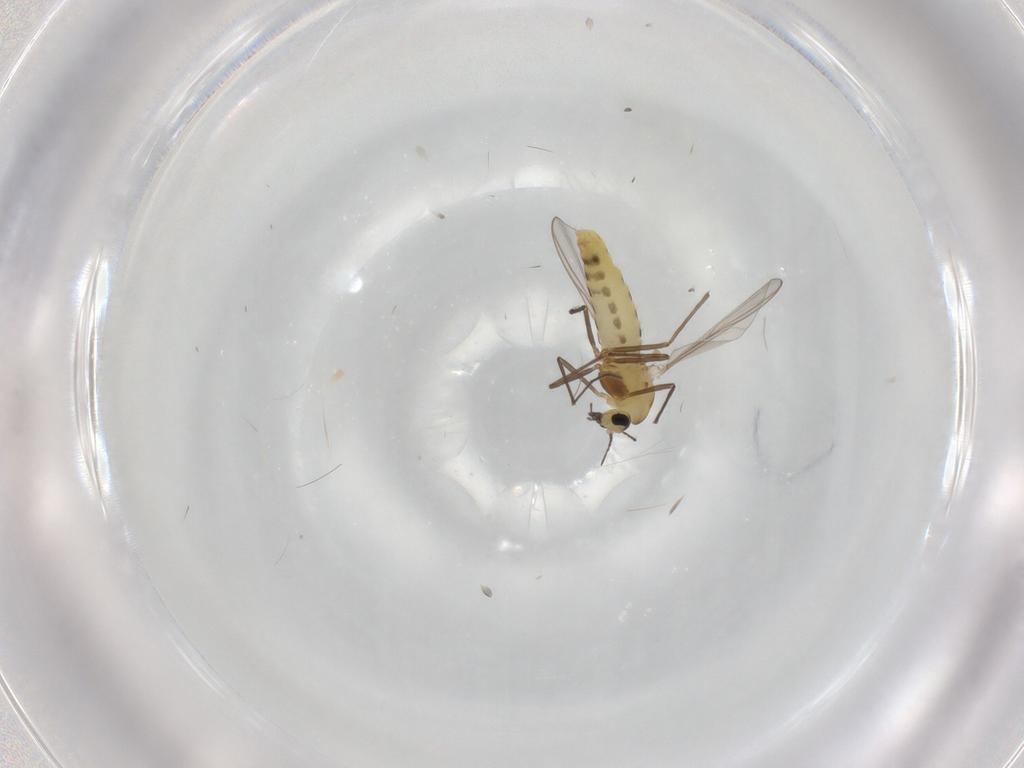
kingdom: Animalia
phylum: Arthropoda
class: Insecta
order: Diptera
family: Chironomidae
